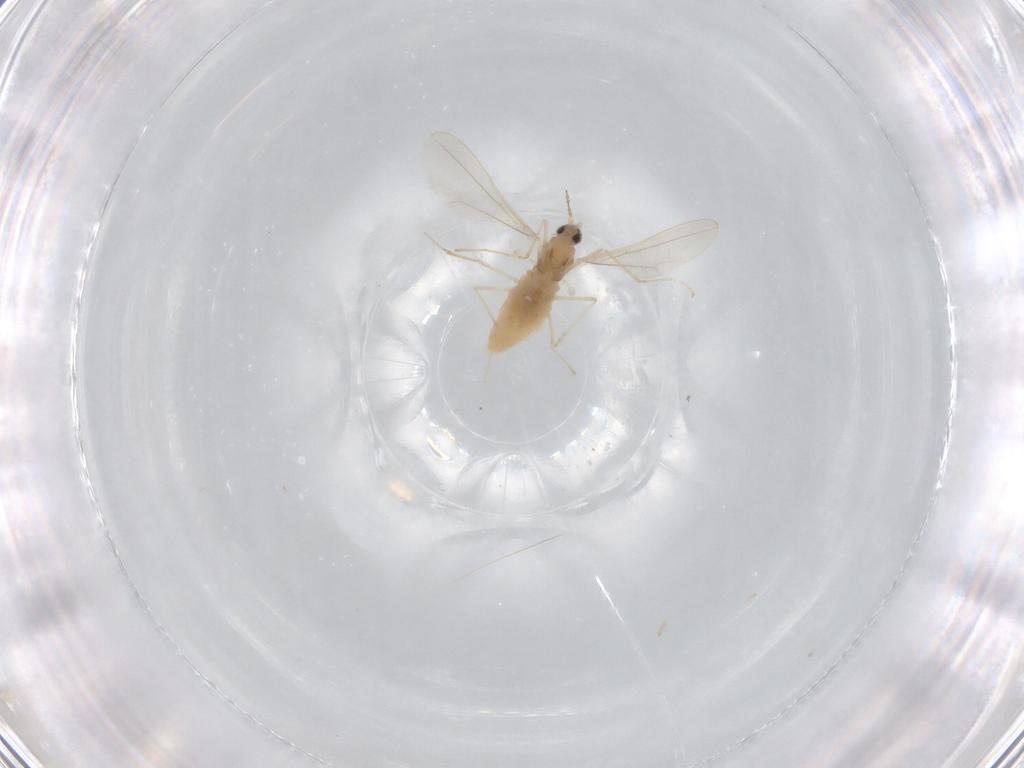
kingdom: Animalia
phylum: Arthropoda
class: Insecta
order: Diptera
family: Cecidomyiidae
